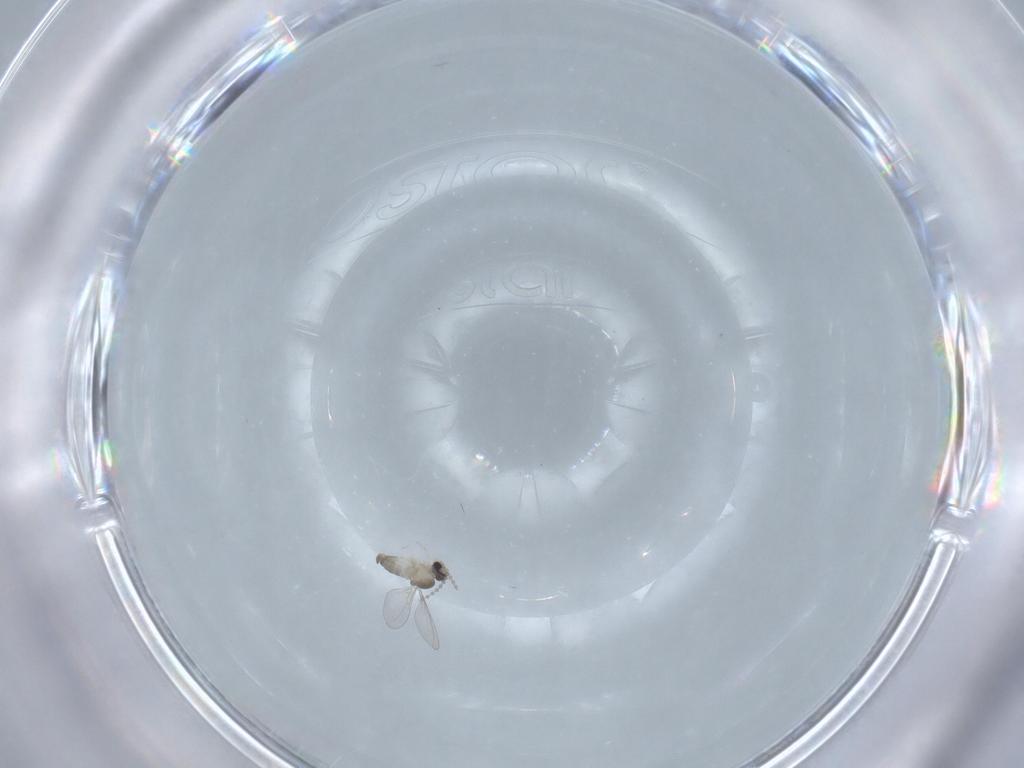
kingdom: Animalia
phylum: Arthropoda
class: Insecta
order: Diptera
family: Cecidomyiidae
